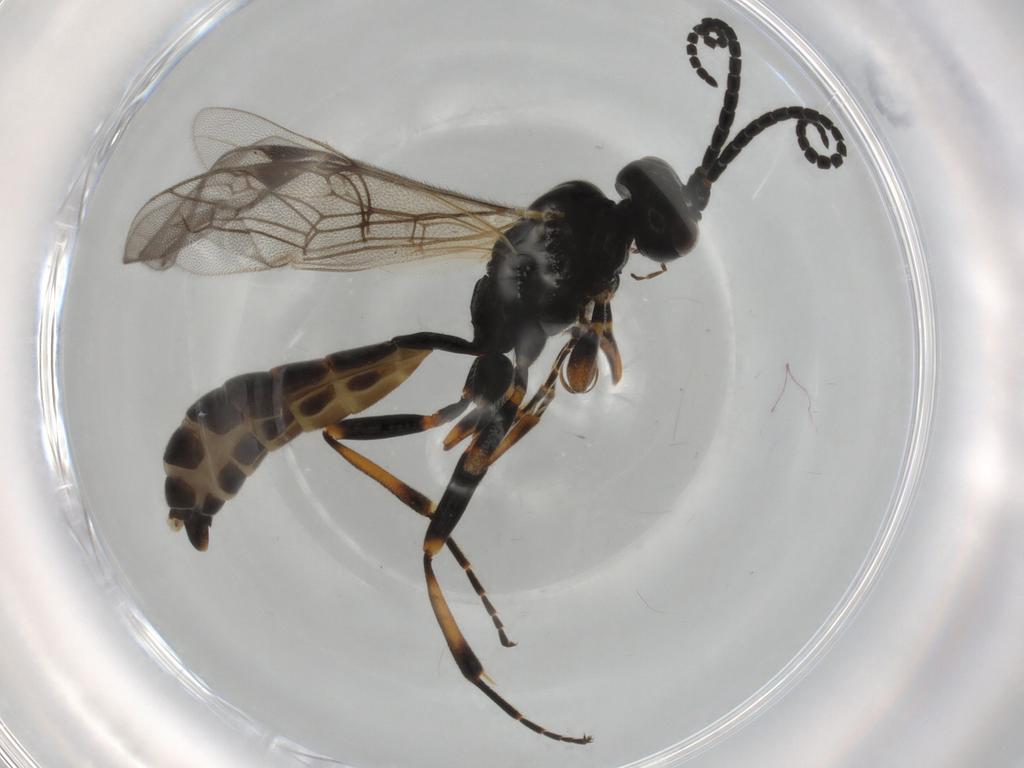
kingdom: Animalia
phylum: Arthropoda
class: Insecta
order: Hymenoptera
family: Ichneumonidae
